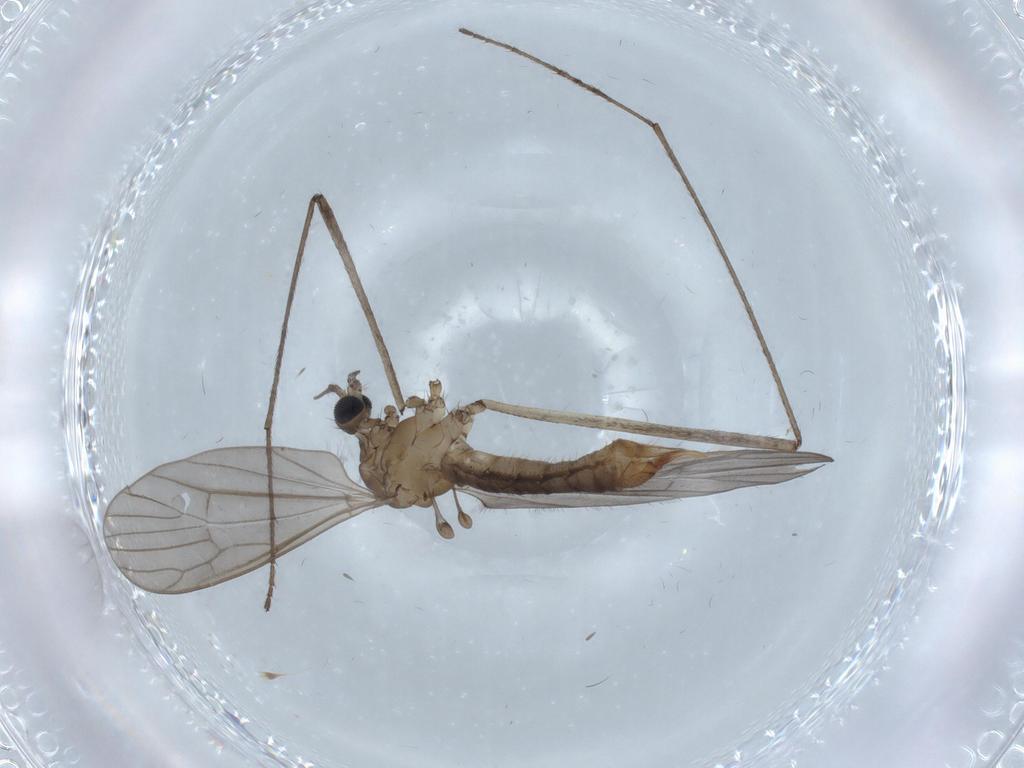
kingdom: Animalia
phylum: Arthropoda
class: Insecta
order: Diptera
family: Limoniidae
